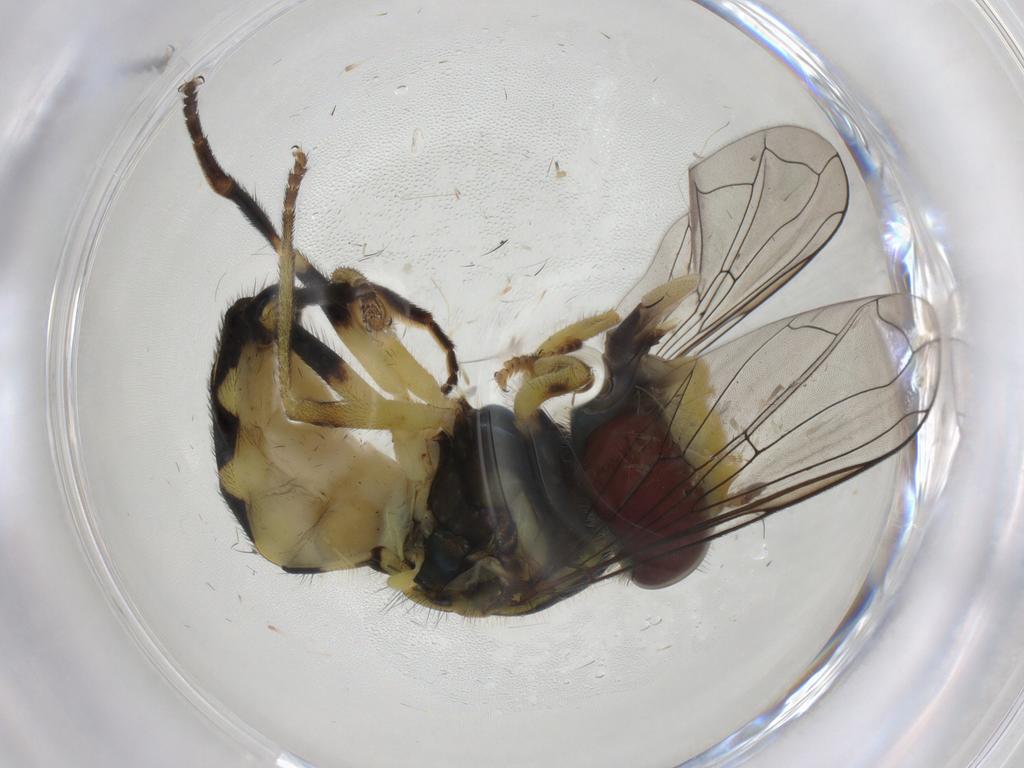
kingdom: Animalia
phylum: Arthropoda
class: Insecta
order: Diptera
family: Syrphidae
